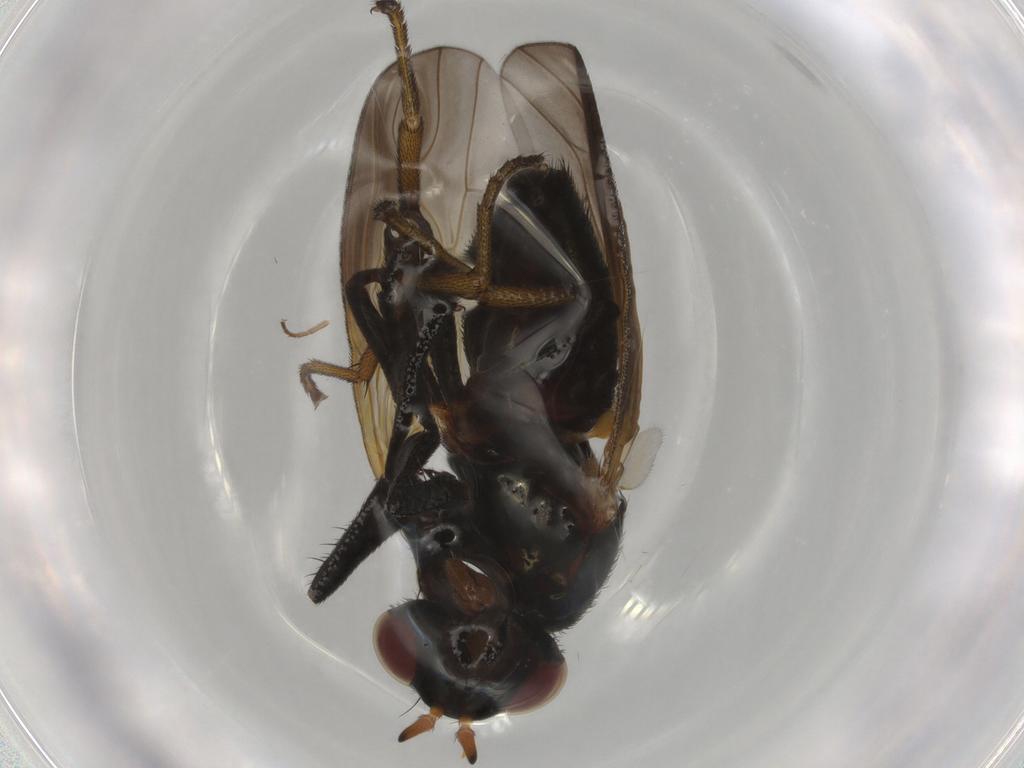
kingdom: Animalia
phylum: Arthropoda
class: Insecta
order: Diptera
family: Lauxaniidae
